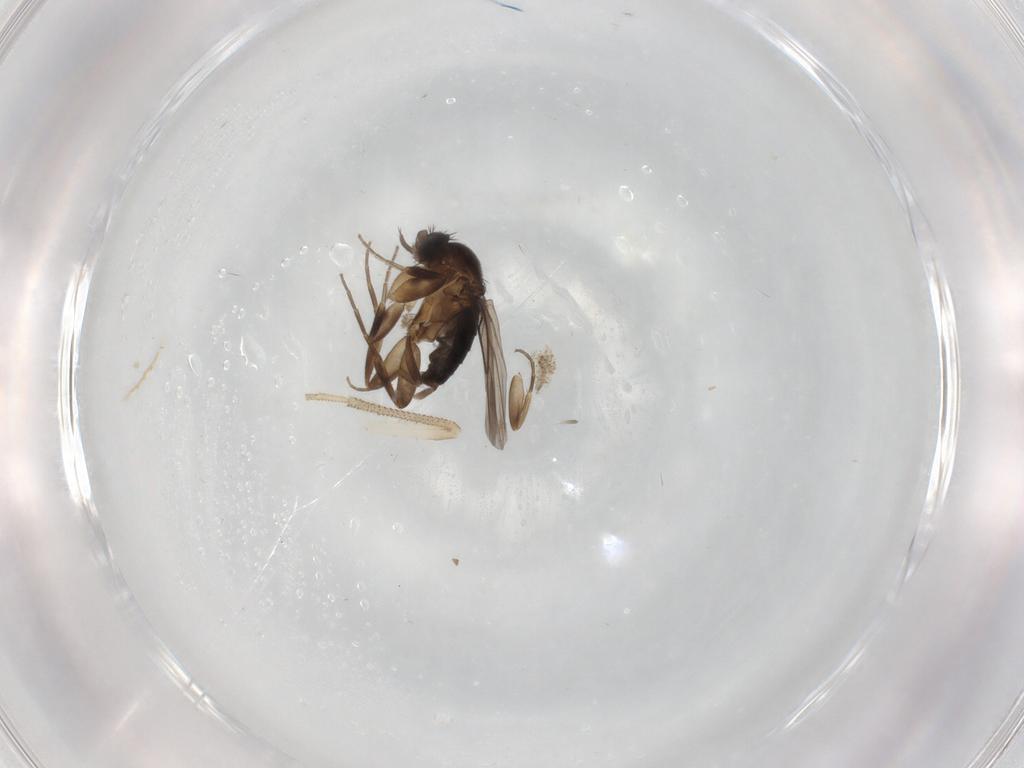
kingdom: Animalia
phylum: Arthropoda
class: Insecta
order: Diptera
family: Phoridae
